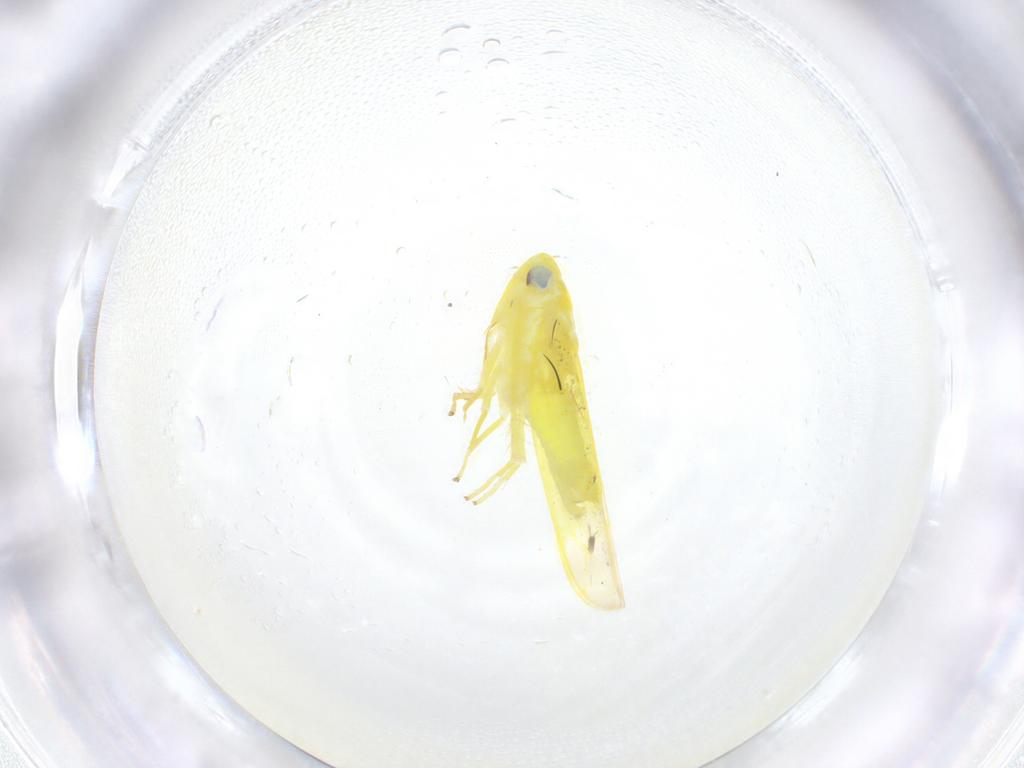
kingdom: Animalia
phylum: Arthropoda
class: Insecta
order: Hemiptera
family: Cicadellidae
